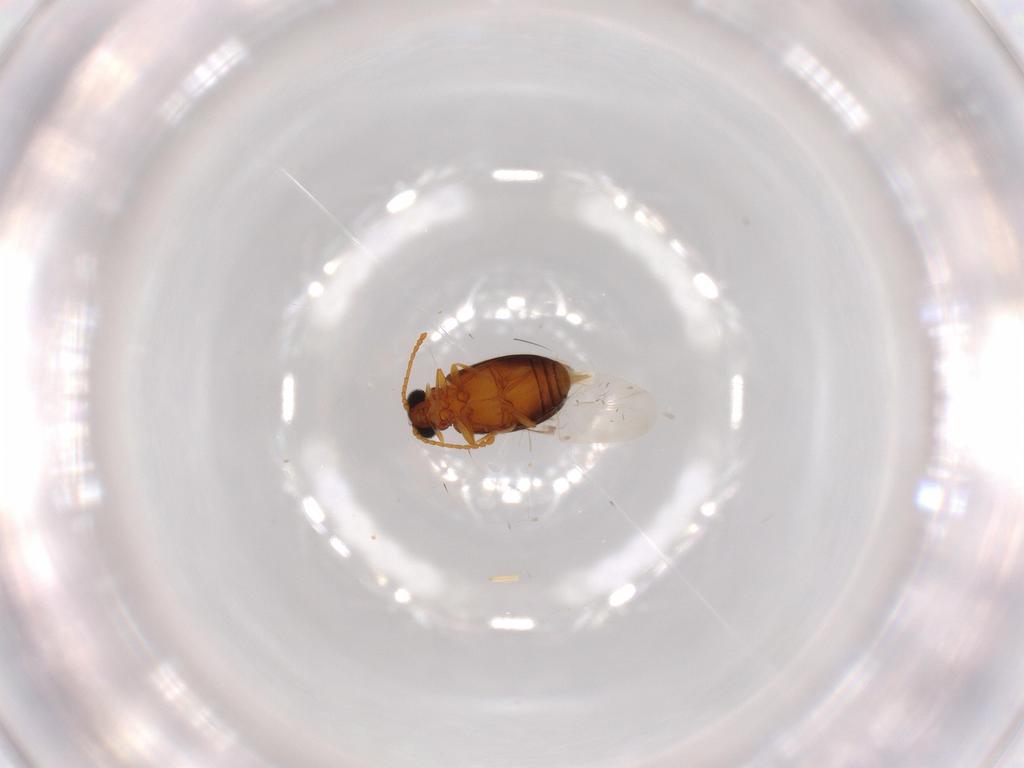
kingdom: Animalia
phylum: Arthropoda
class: Insecta
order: Coleoptera
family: Aderidae
